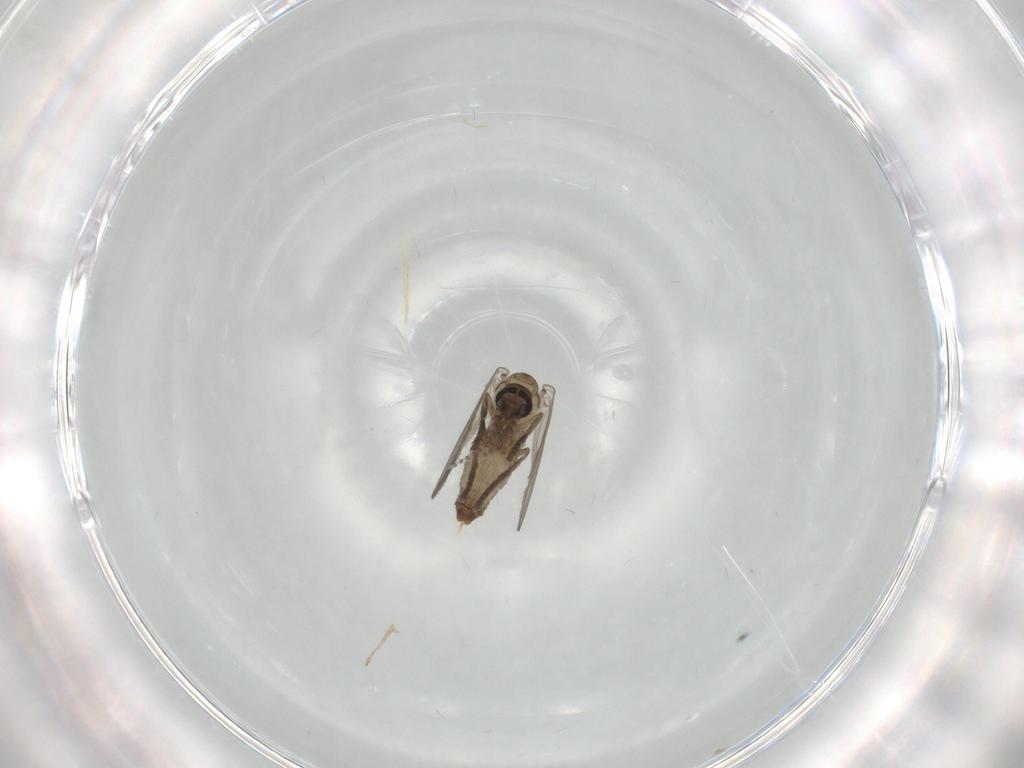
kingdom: Animalia
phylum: Arthropoda
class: Insecta
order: Diptera
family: Psychodidae
